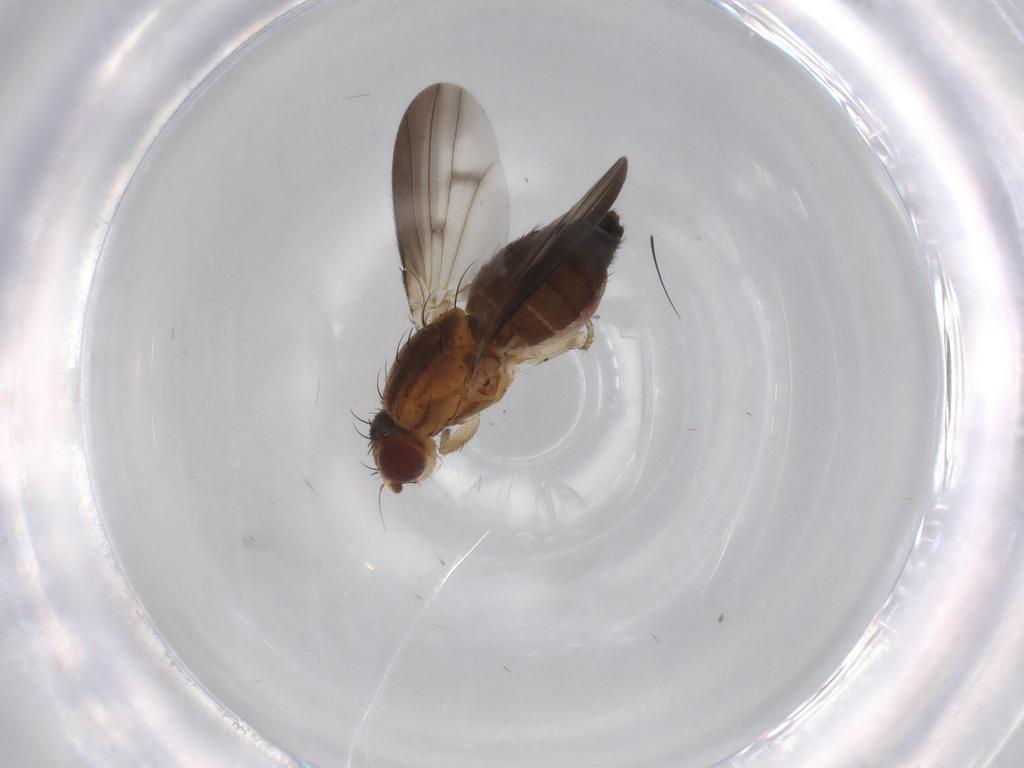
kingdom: Animalia
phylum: Arthropoda
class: Insecta
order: Diptera
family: Heleomyzidae
